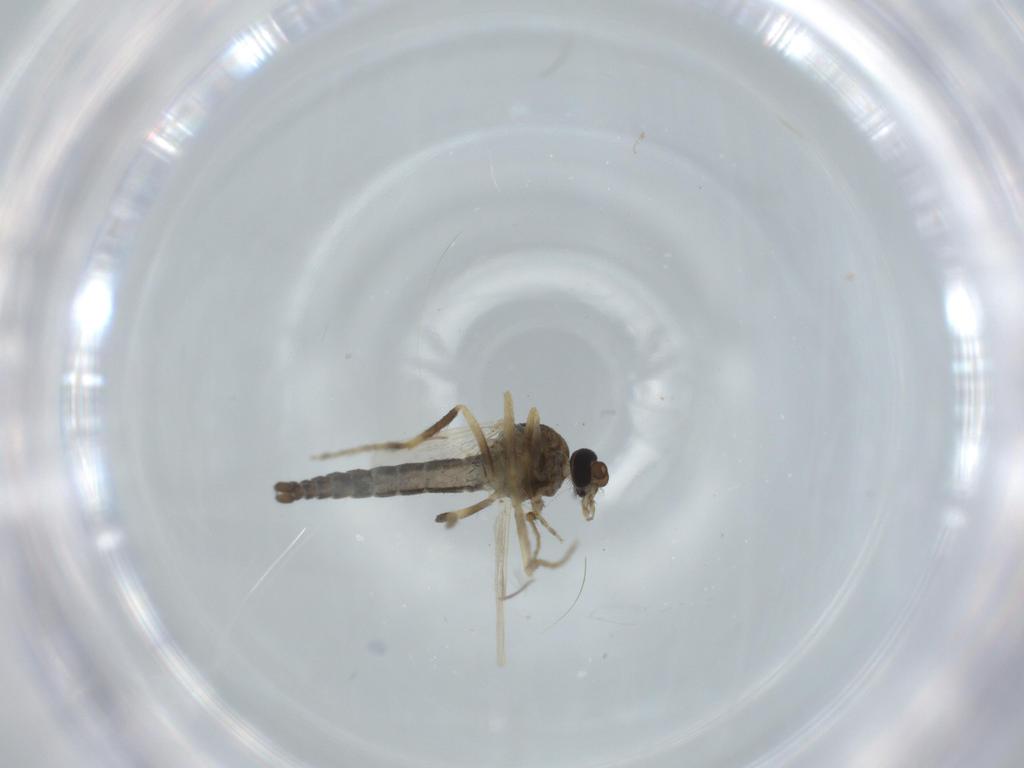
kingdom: Animalia
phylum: Arthropoda
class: Insecta
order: Diptera
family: Ceratopogonidae
